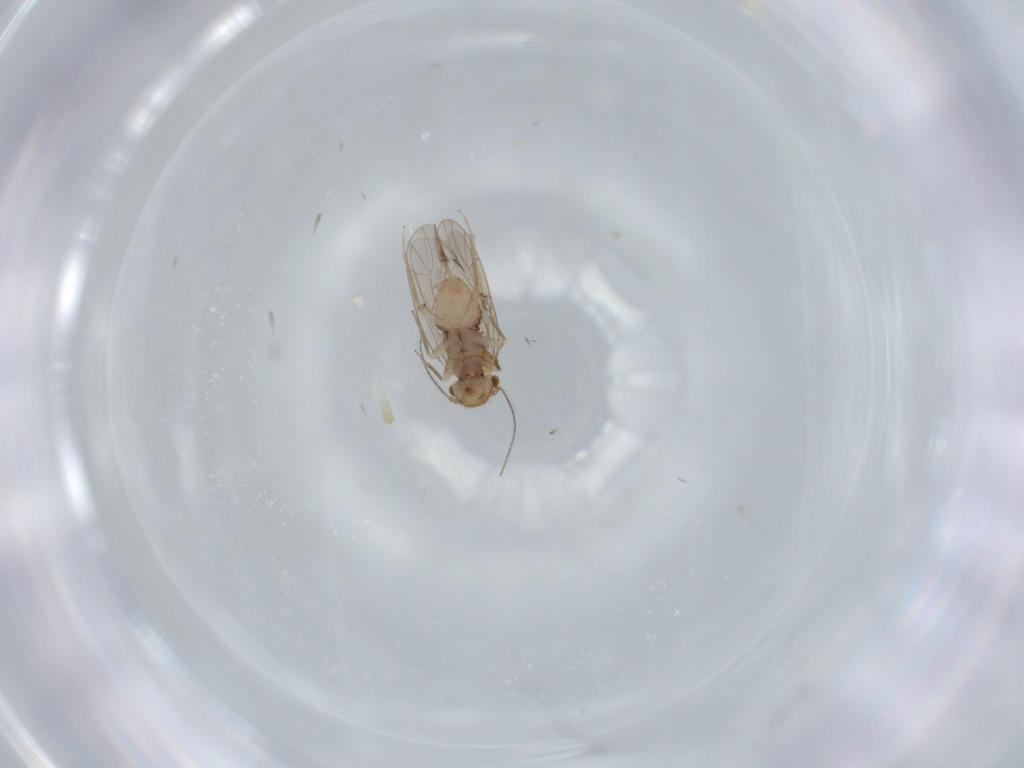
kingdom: Animalia
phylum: Arthropoda
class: Insecta
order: Psocodea
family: Ectopsocidae
